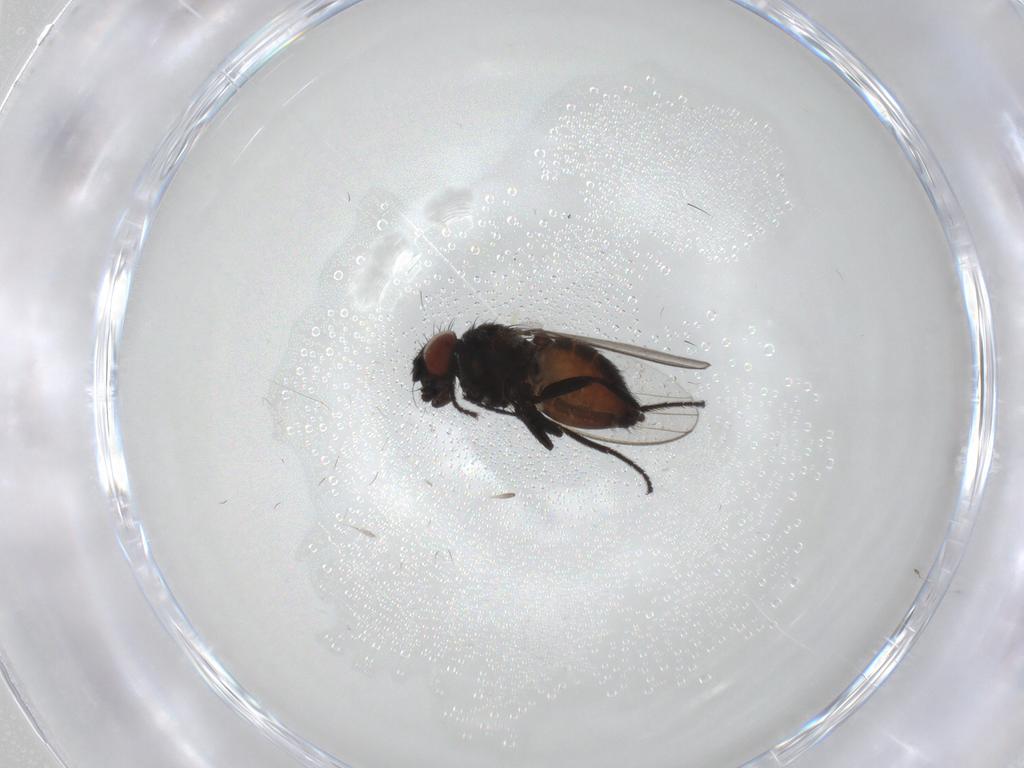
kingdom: Animalia
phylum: Arthropoda
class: Insecta
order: Diptera
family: Milichiidae
